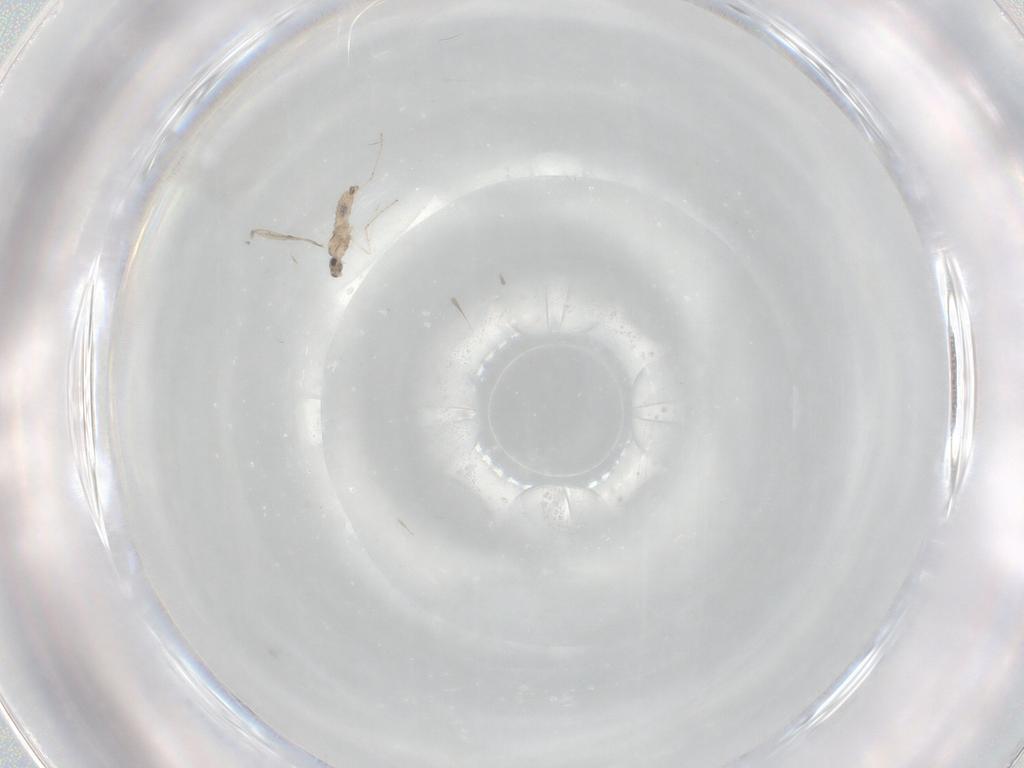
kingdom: Animalia
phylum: Arthropoda
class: Insecta
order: Diptera
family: Cecidomyiidae
